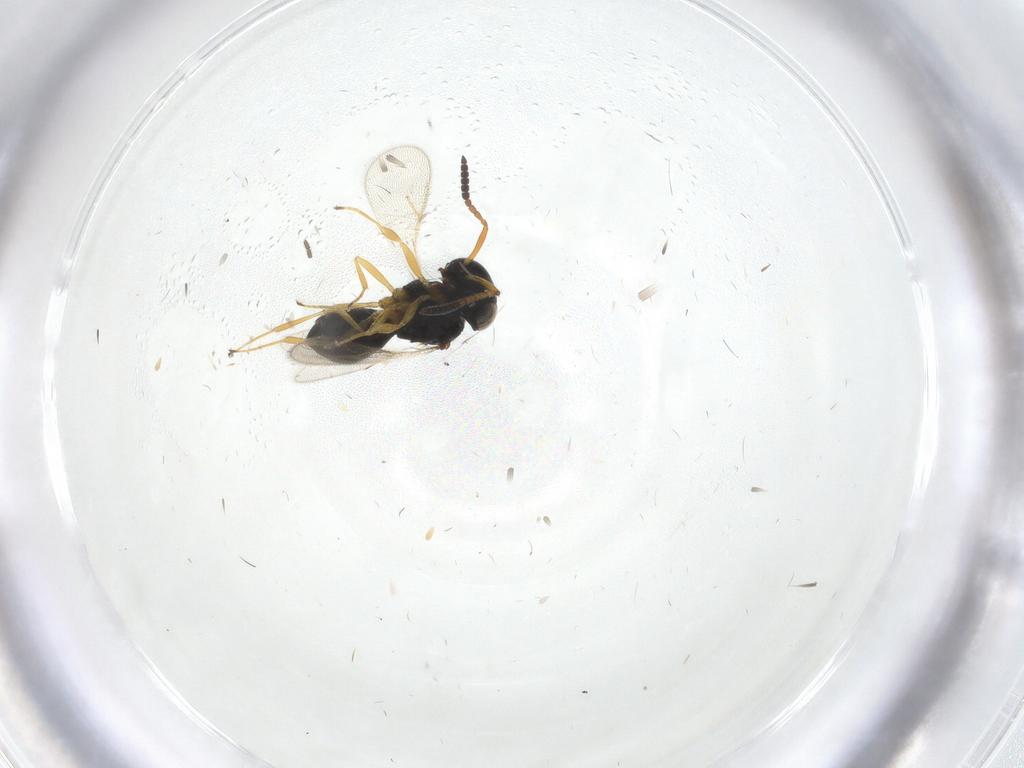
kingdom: Animalia
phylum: Arthropoda
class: Insecta
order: Hymenoptera
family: Scelionidae
